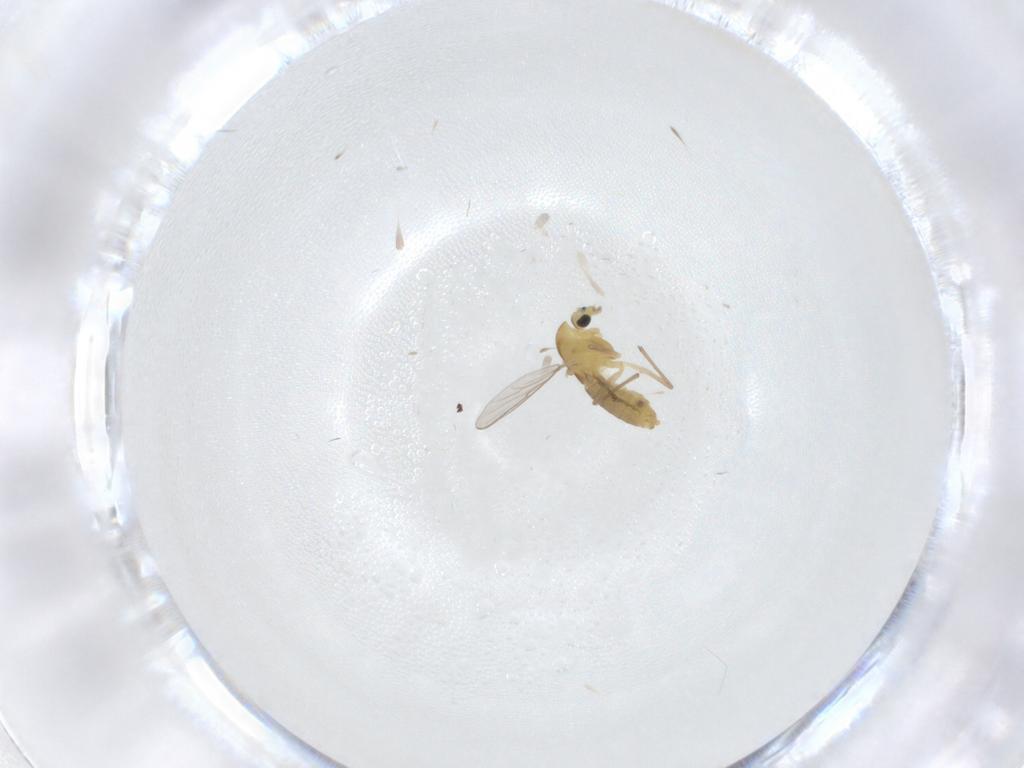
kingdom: Animalia
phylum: Arthropoda
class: Insecta
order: Diptera
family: Chironomidae
